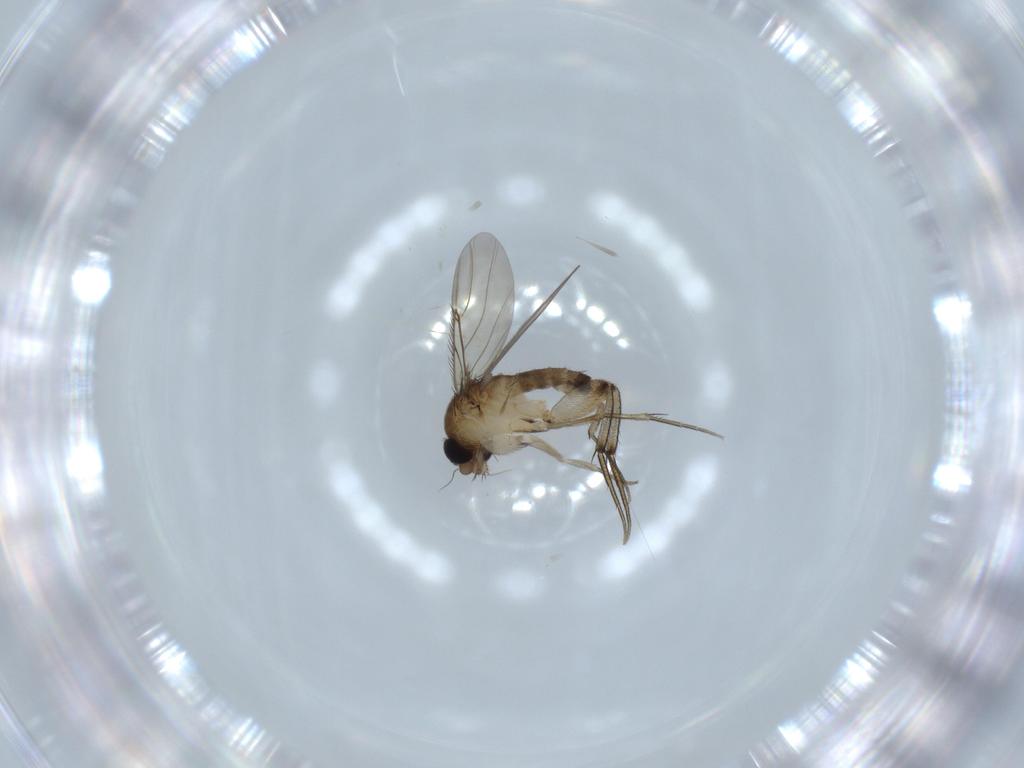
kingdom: Animalia
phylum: Arthropoda
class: Insecta
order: Diptera
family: Phoridae
